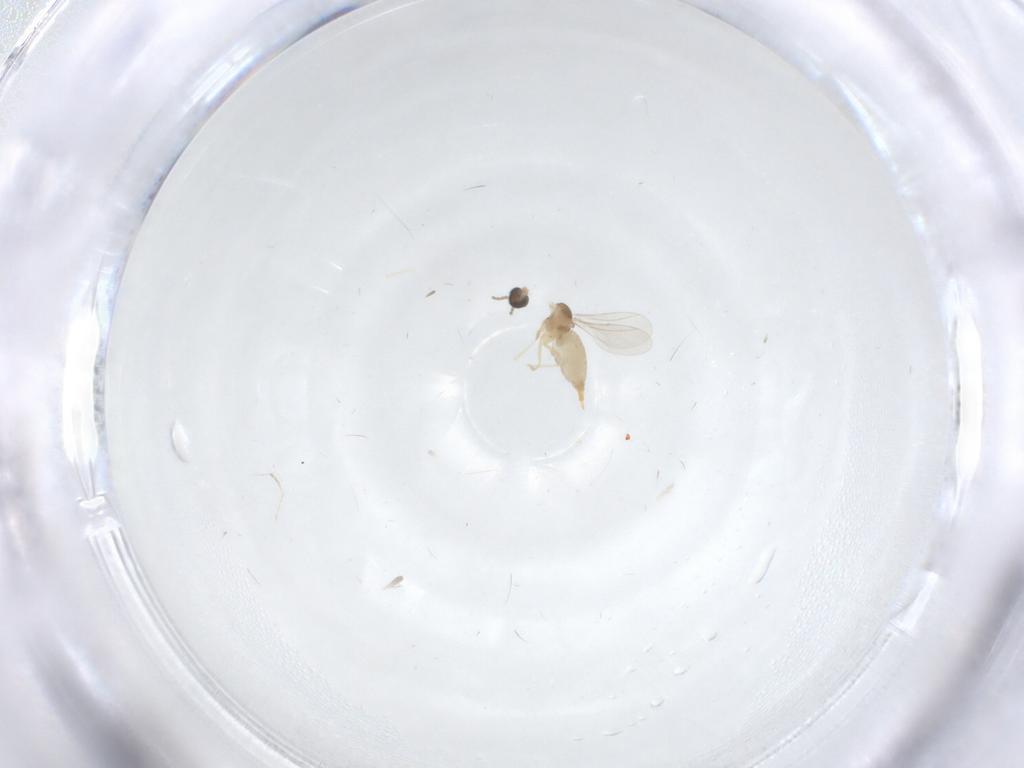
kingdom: Animalia
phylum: Arthropoda
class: Insecta
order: Diptera
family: Cecidomyiidae
